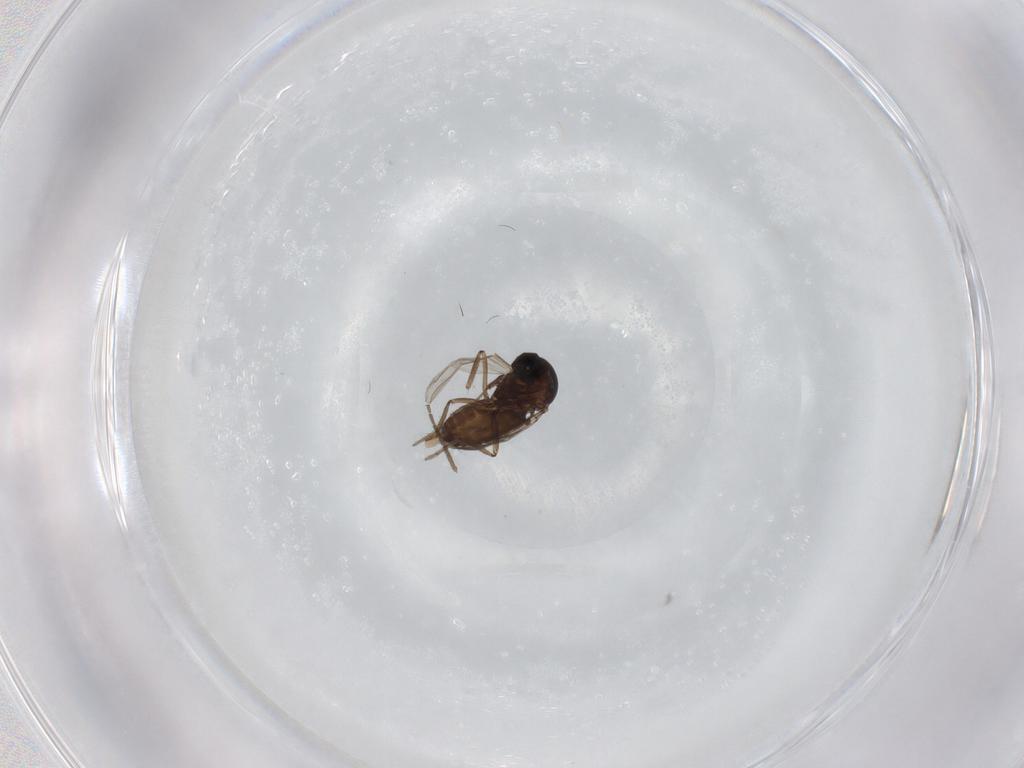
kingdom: Animalia
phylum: Arthropoda
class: Insecta
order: Diptera
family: Ceratopogonidae
